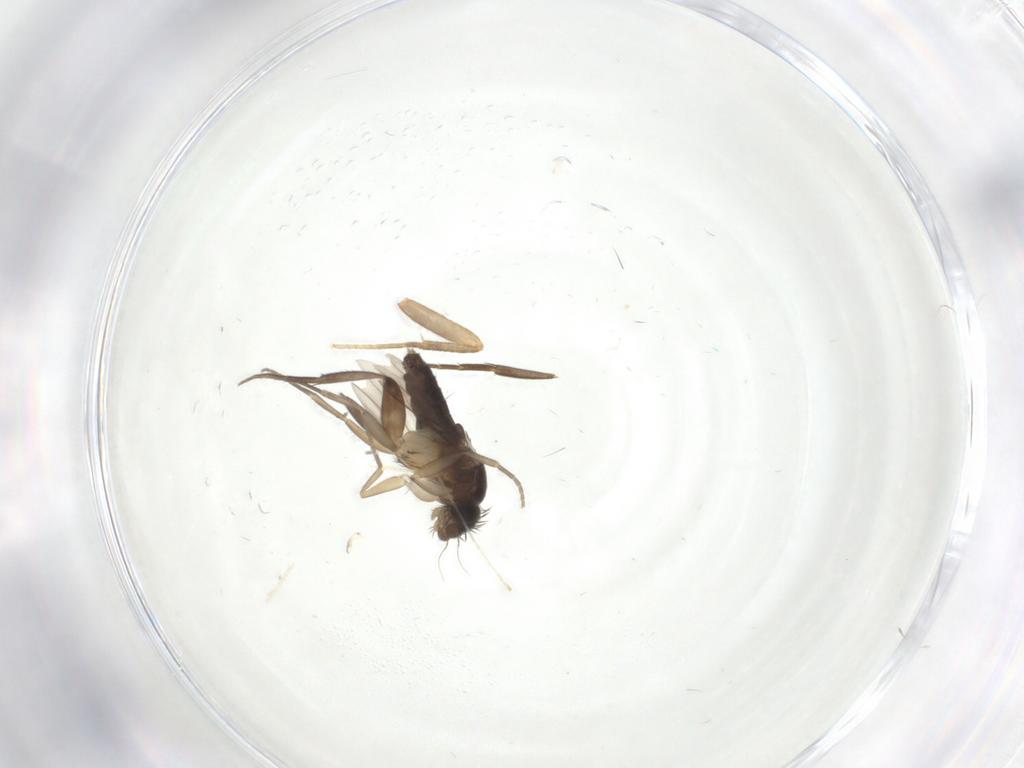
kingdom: Animalia
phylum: Arthropoda
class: Insecta
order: Diptera
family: Phoridae
